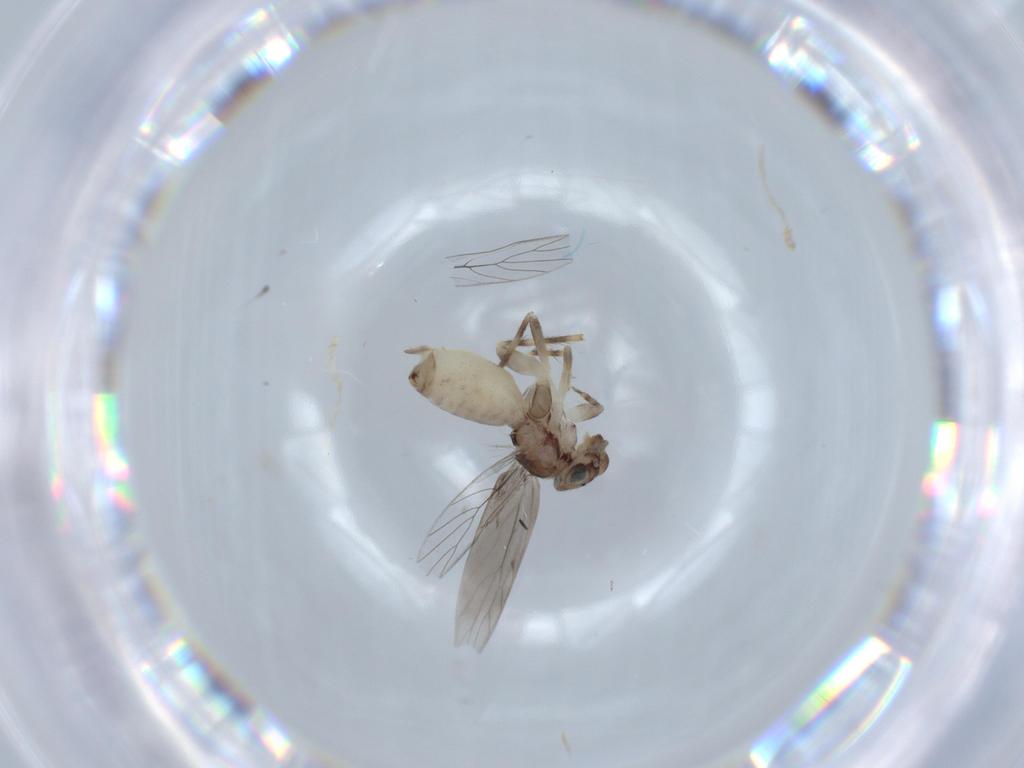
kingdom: Animalia
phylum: Arthropoda
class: Insecta
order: Psocodea
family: Lepidopsocidae
